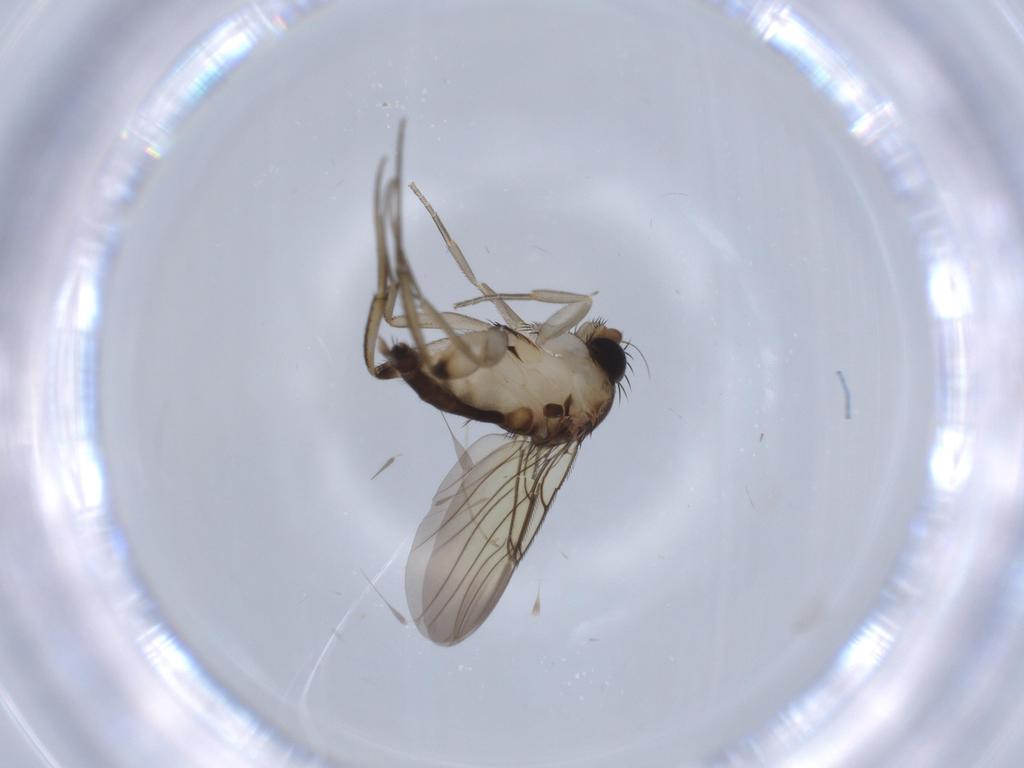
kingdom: Animalia
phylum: Arthropoda
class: Insecta
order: Diptera
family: Phoridae
